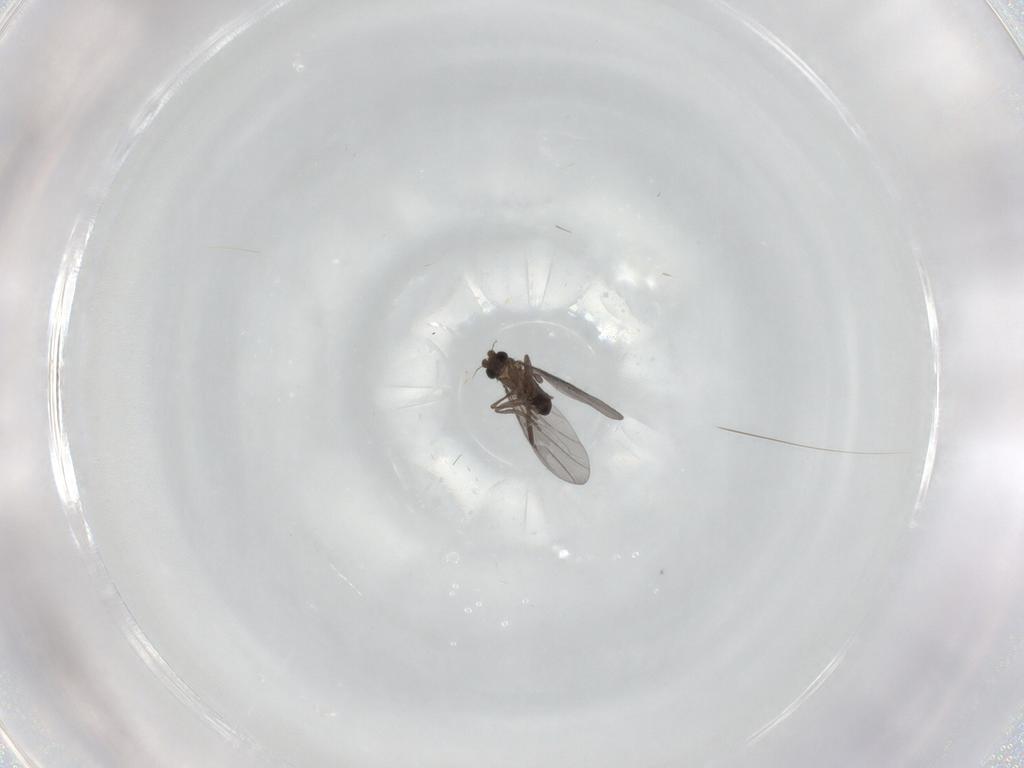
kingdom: Animalia
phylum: Arthropoda
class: Insecta
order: Diptera
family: Phoridae
